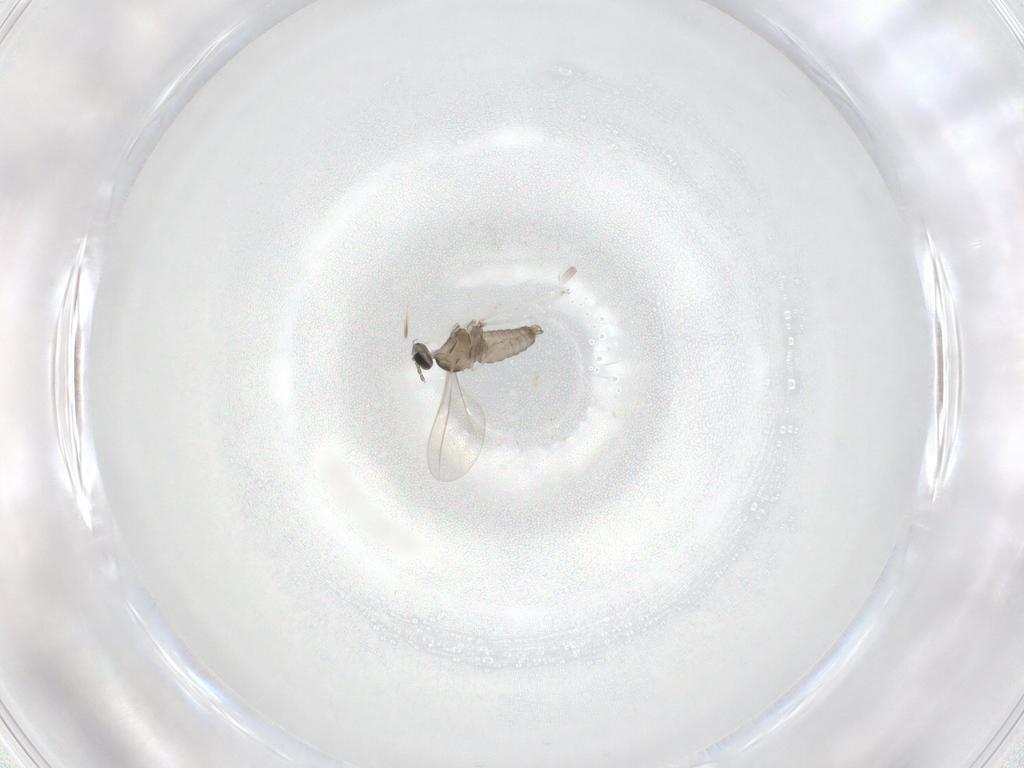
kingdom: Animalia
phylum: Arthropoda
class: Insecta
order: Diptera
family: Cecidomyiidae
